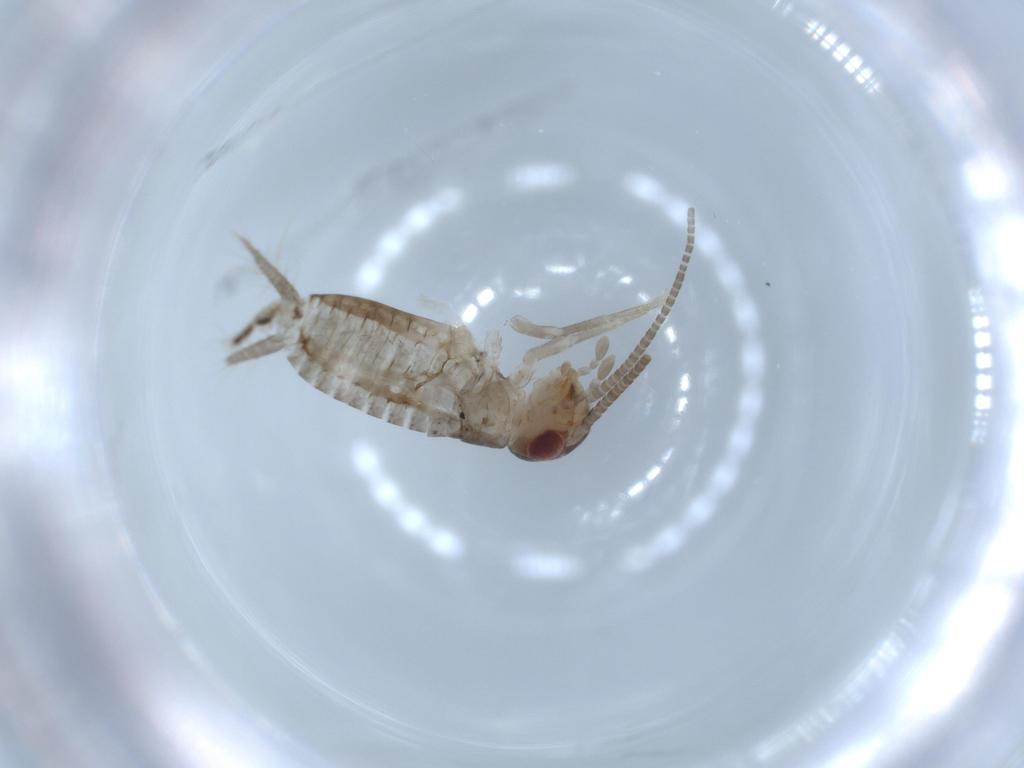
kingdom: Animalia
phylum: Arthropoda
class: Insecta
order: Orthoptera
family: Gryllidae
